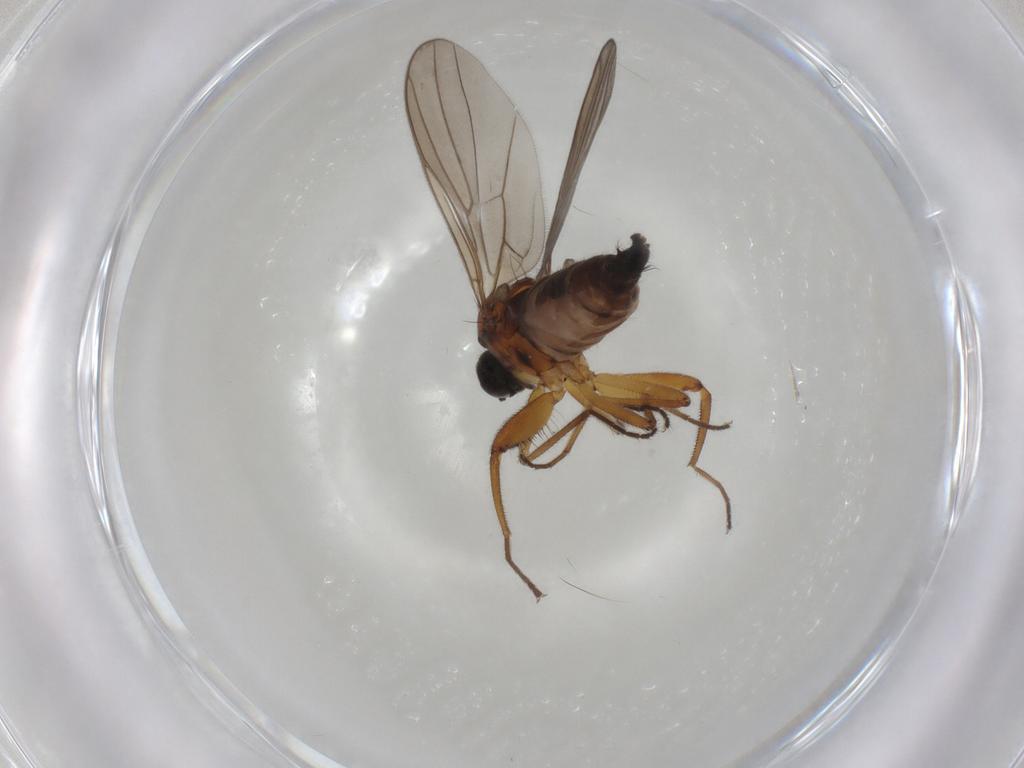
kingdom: Animalia
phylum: Arthropoda
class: Insecta
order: Diptera
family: Hybotidae
